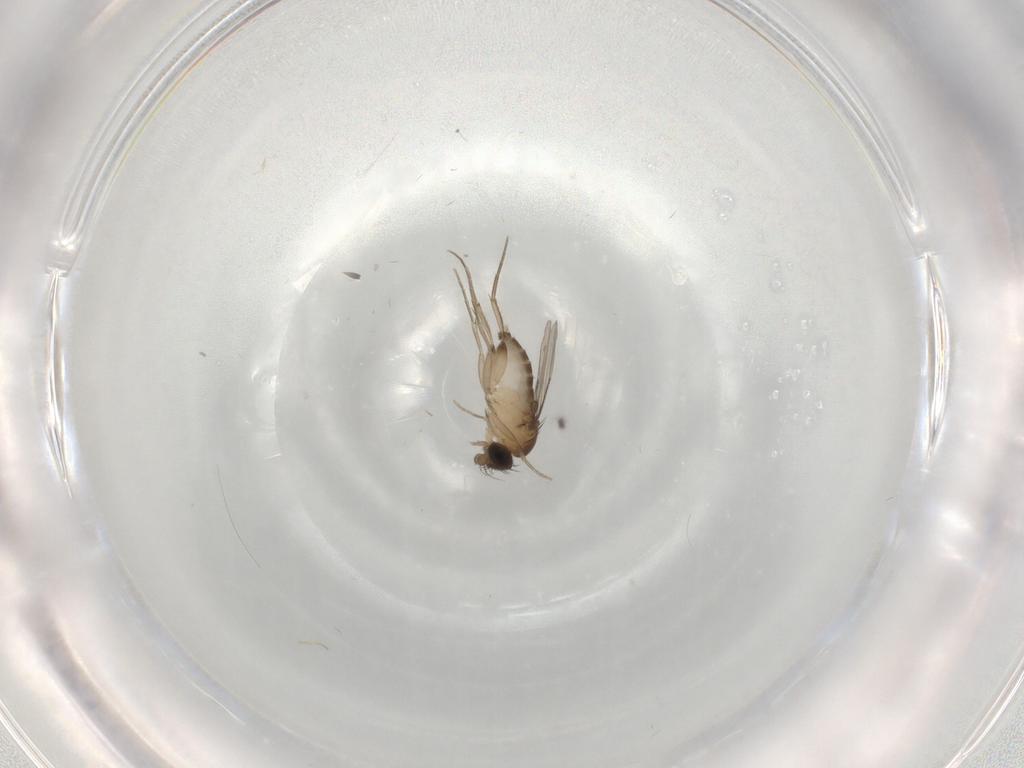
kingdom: Animalia
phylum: Arthropoda
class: Insecta
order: Diptera
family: Phoridae
